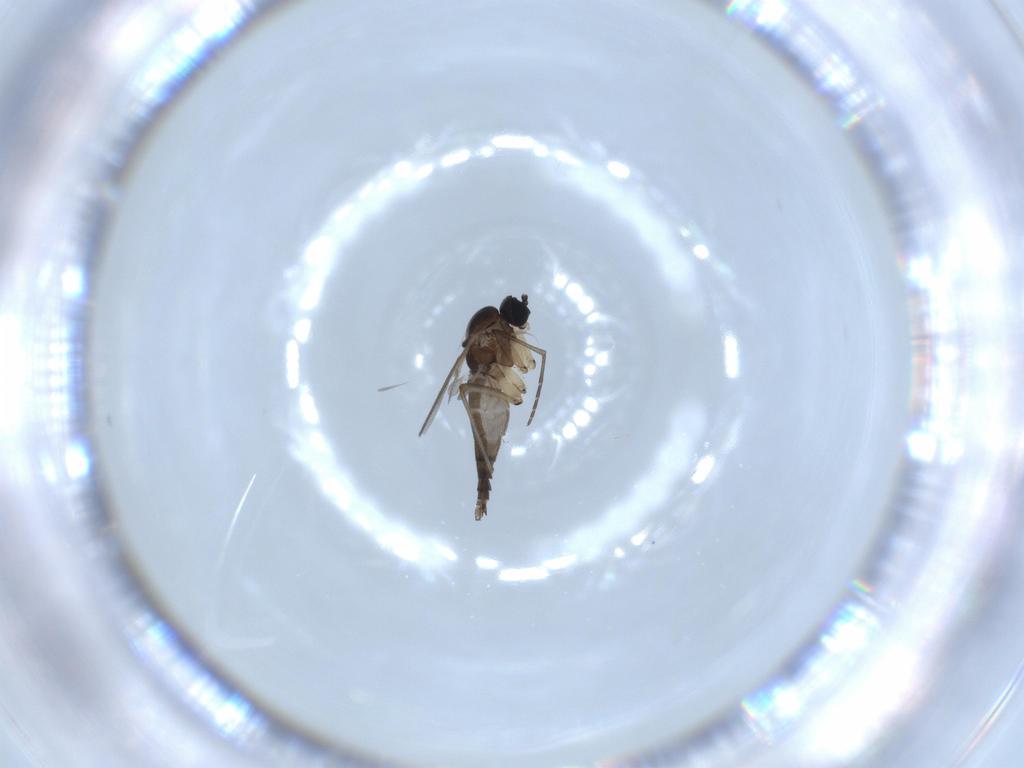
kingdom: Animalia
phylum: Arthropoda
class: Insecta
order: Diptera
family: Sciaridae
